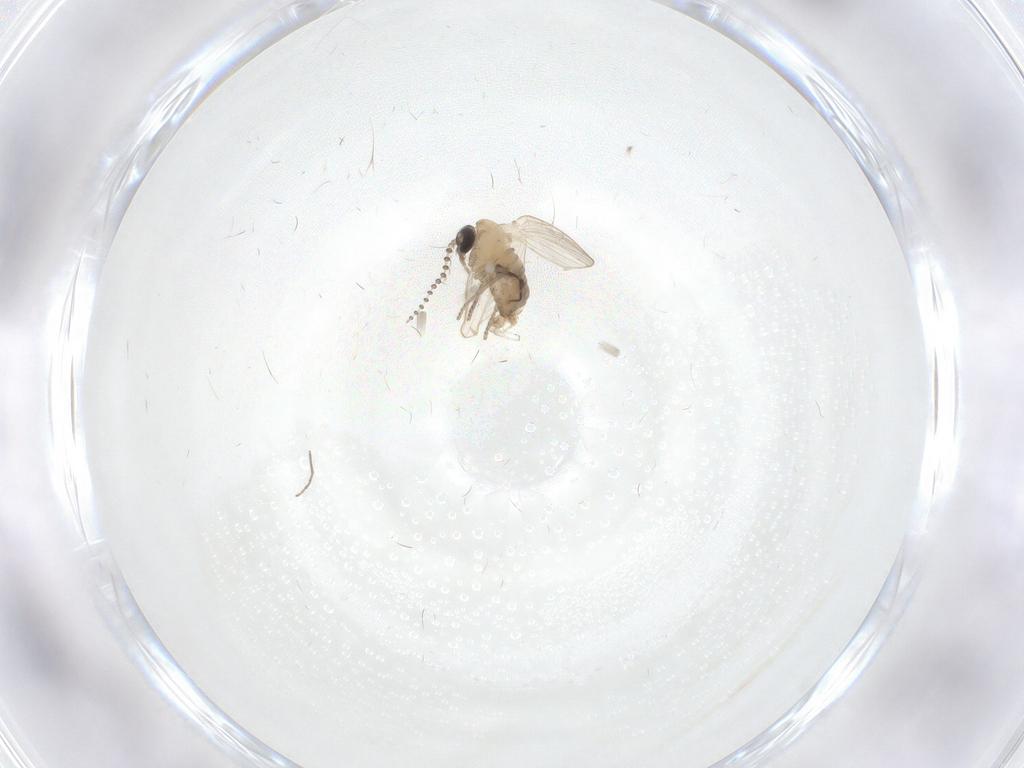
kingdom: Animalia
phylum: Arthropoda
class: Insecta
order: Diptera
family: Psychodidae
